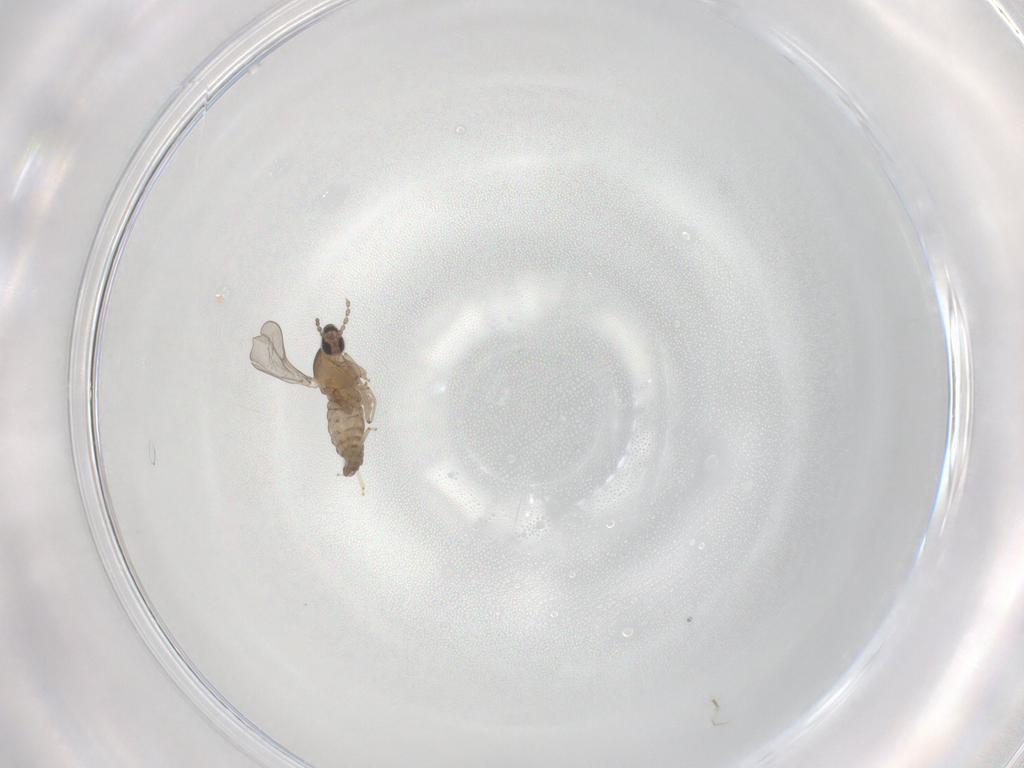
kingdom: Animalia
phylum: Arthropoda
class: Insecta
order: Diptera
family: Cecidomyiidae
